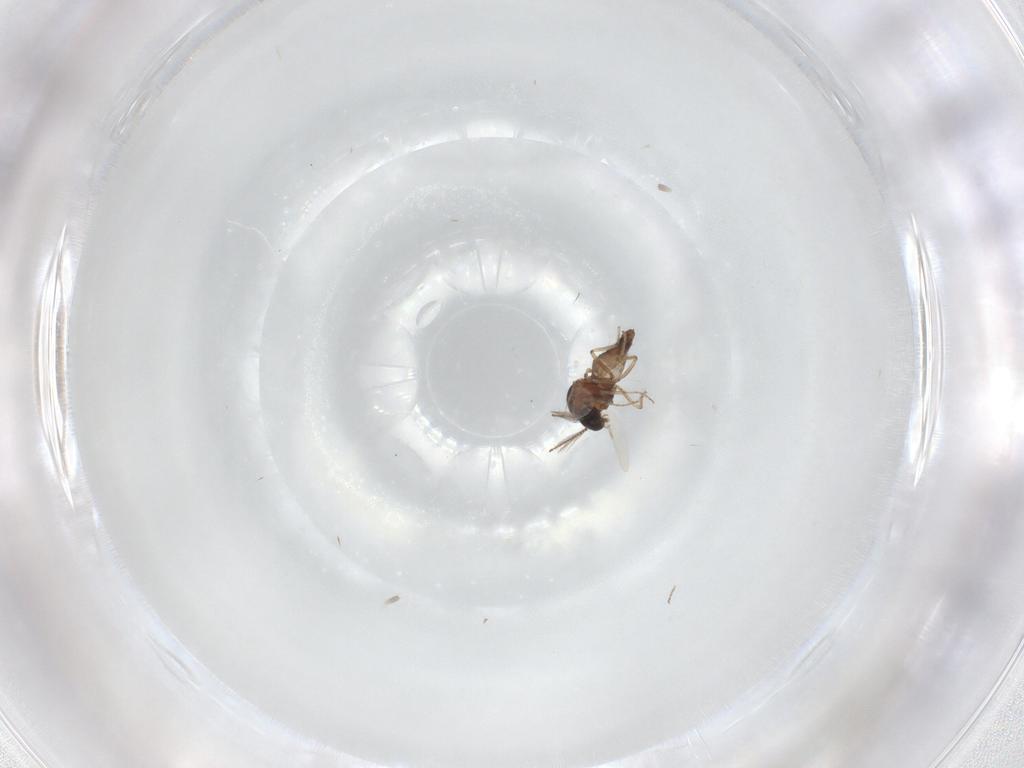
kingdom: Animalia
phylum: Arthropoda
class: Insecta
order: Diptera
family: Ceratopogonidae
